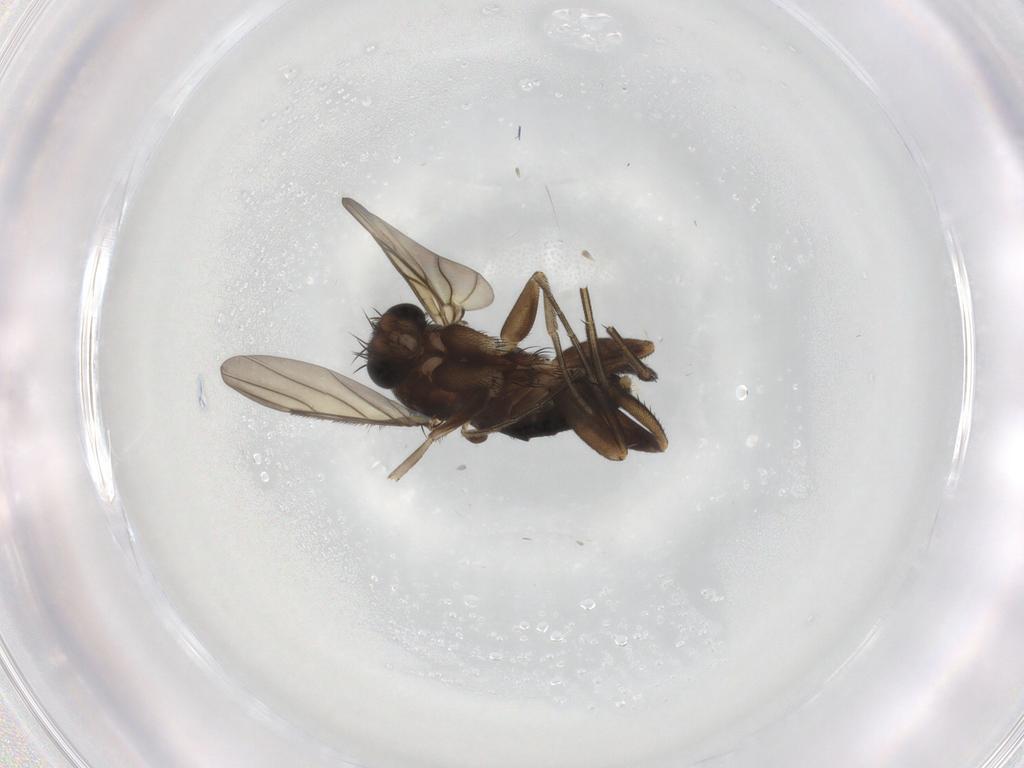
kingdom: Animalia
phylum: Arthropoda
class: Insecta
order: Diptera
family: Phoridae
